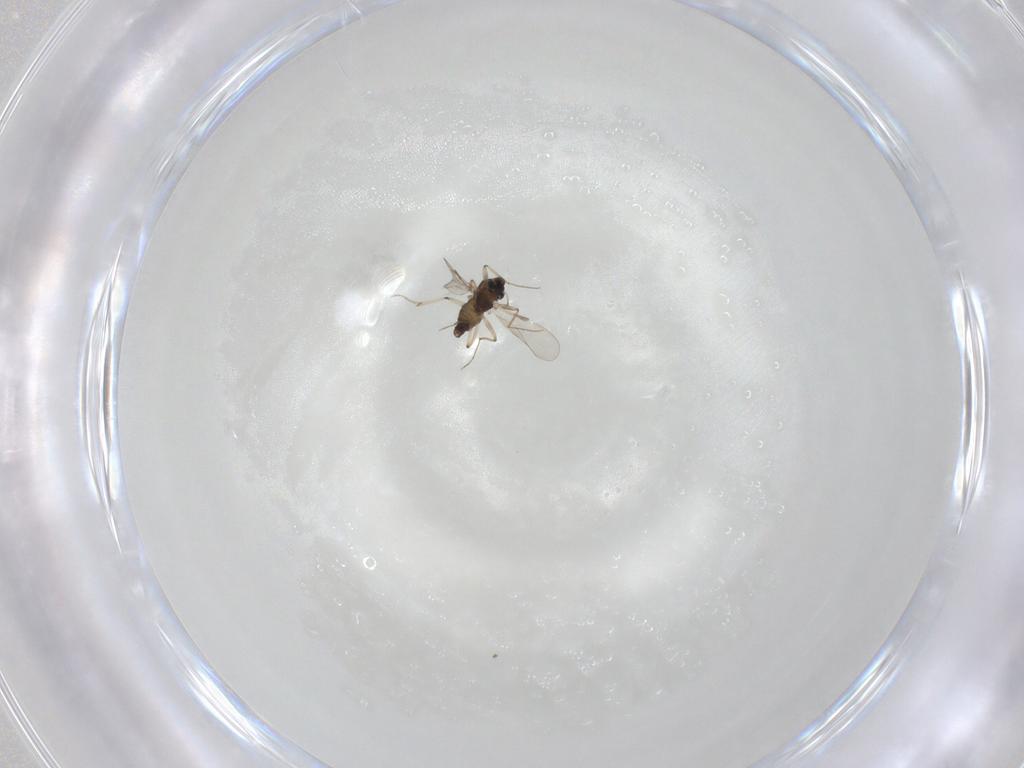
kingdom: Animalia
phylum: Arthropoda
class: Insecta
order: Diptera
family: Chironomidae
